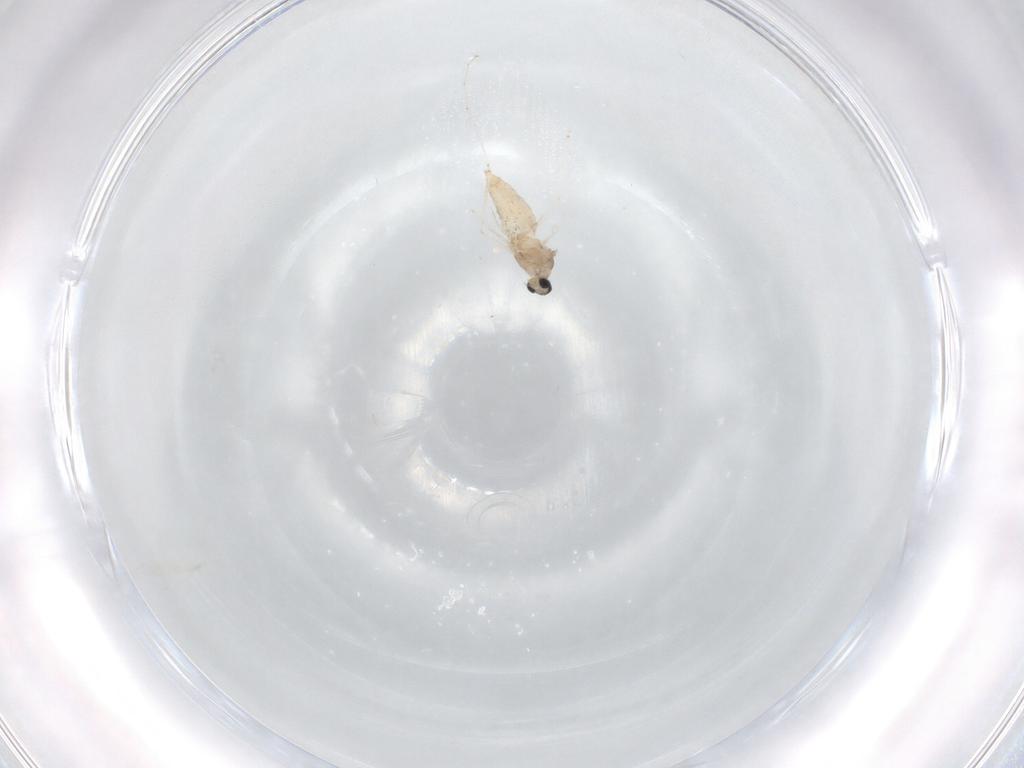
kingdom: Animalia
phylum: Arthropoda
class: Insecta
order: Diptera
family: Cecidomyiidae
